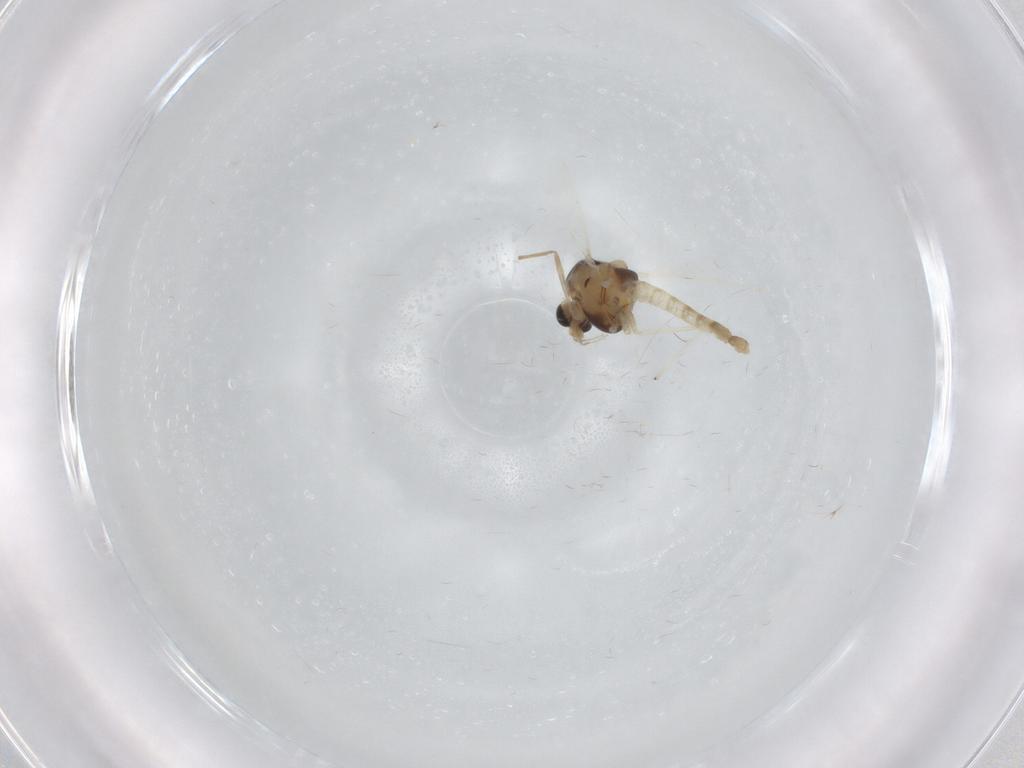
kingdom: Animalia
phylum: Arthropoda
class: Insecta
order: Diptera
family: Chironomidae
